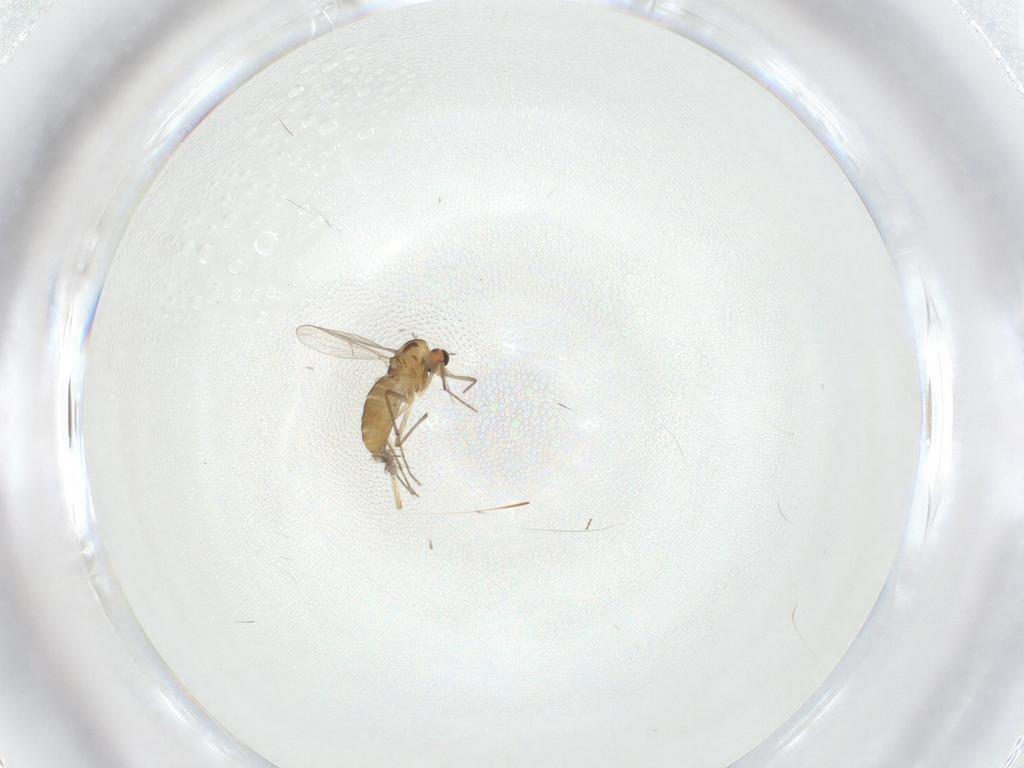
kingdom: Animalia
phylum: Arthropoda
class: Insecta
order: Diptera
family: Chironomidae
